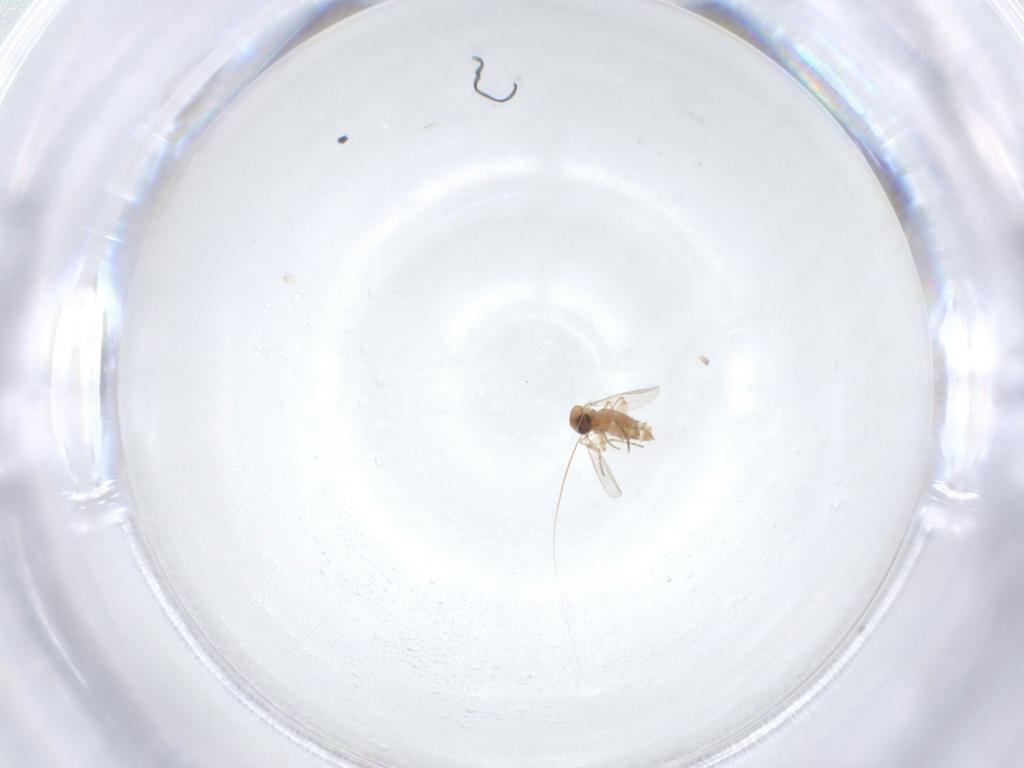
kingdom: Animalia
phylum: Arthropoda
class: Insecta
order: Diptera
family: Ceratopogonidae
